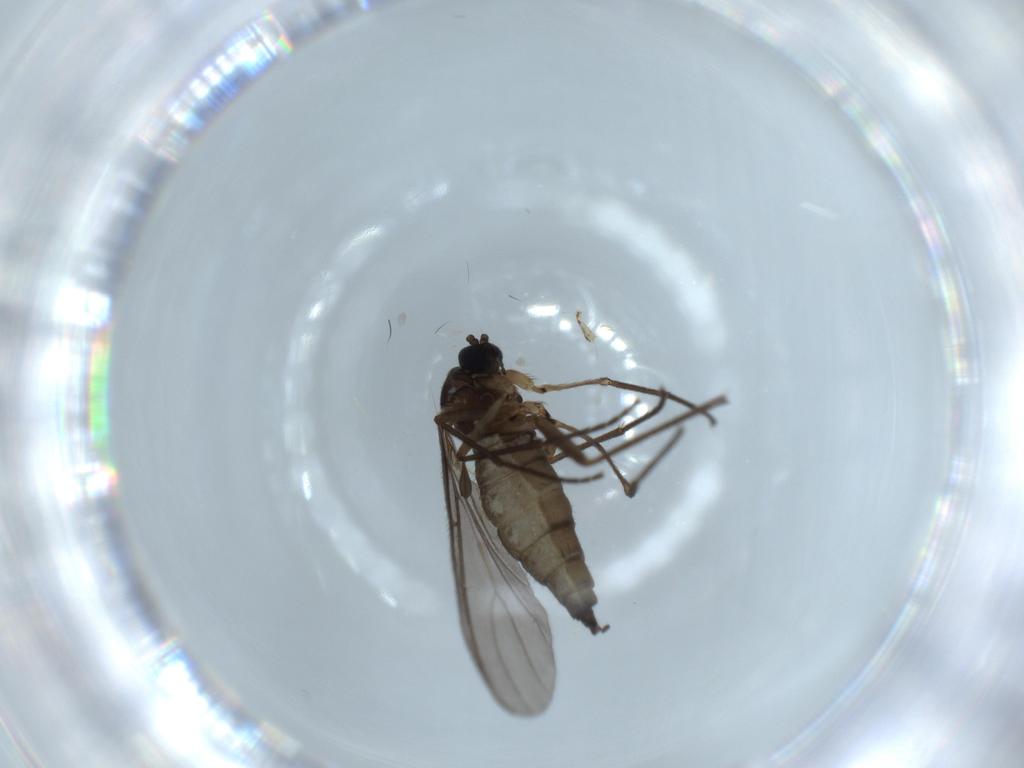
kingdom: Animalia
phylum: Arthropoda
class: Insecta
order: Diptera
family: Sciaridae
